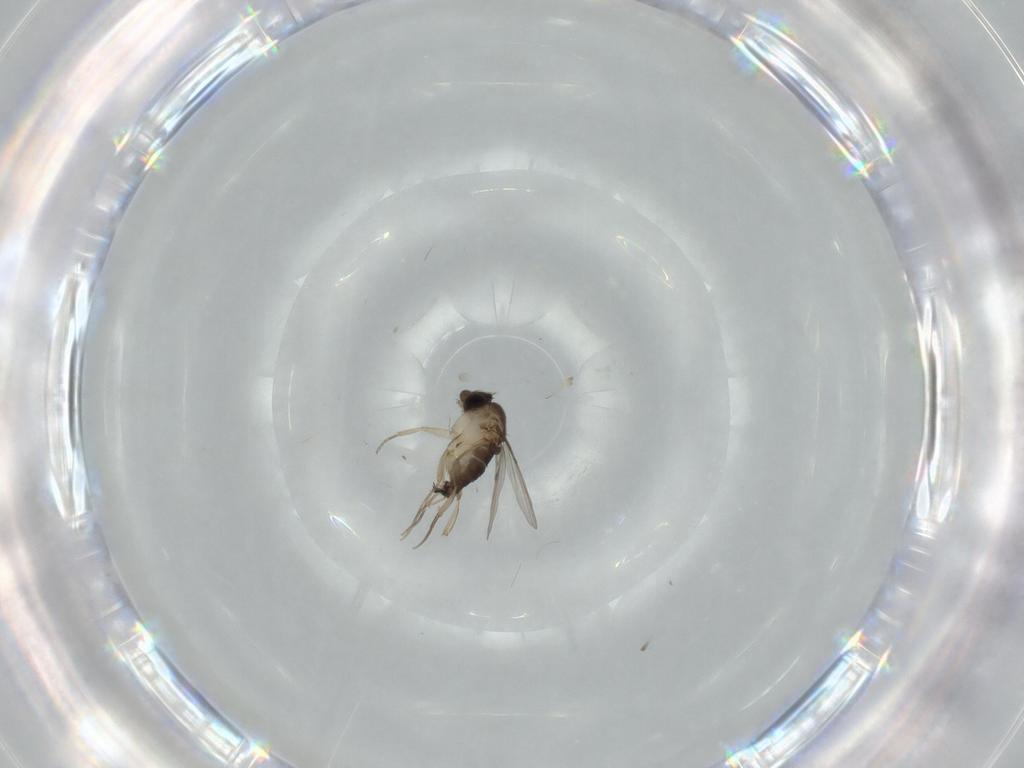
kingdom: Animalia
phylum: Arthropoda
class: Insecta
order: Diptera
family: Phoridae
